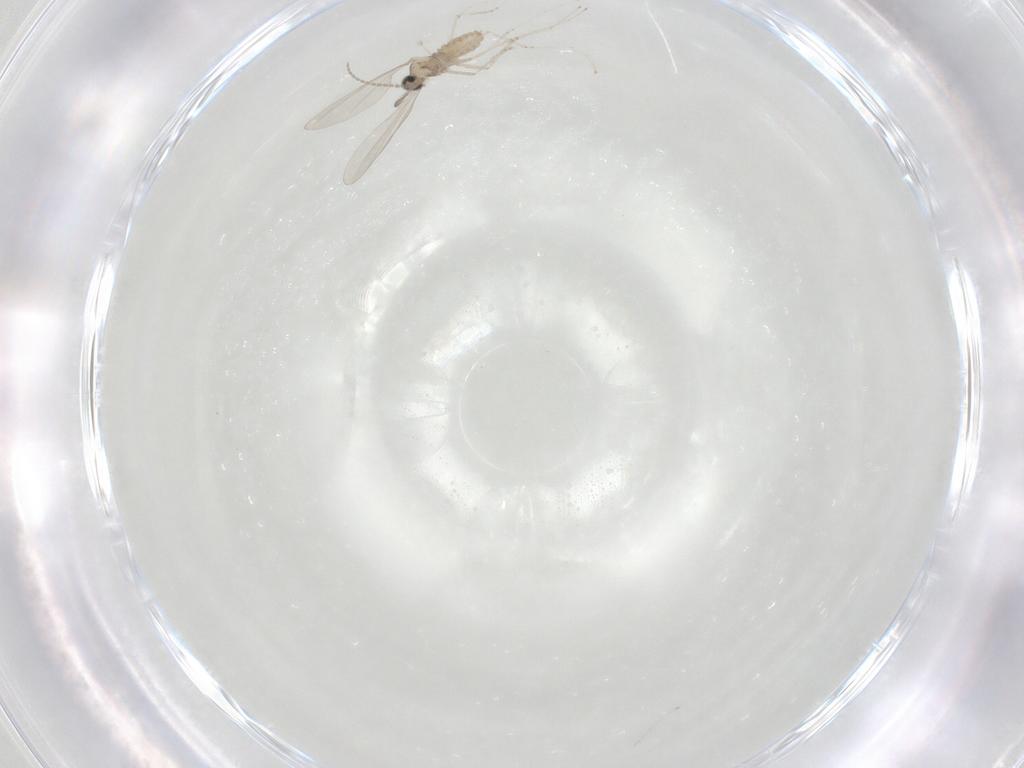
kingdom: Animalia
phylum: Arthropoda
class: Insecta
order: Diptera
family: Cecidomyiidae
